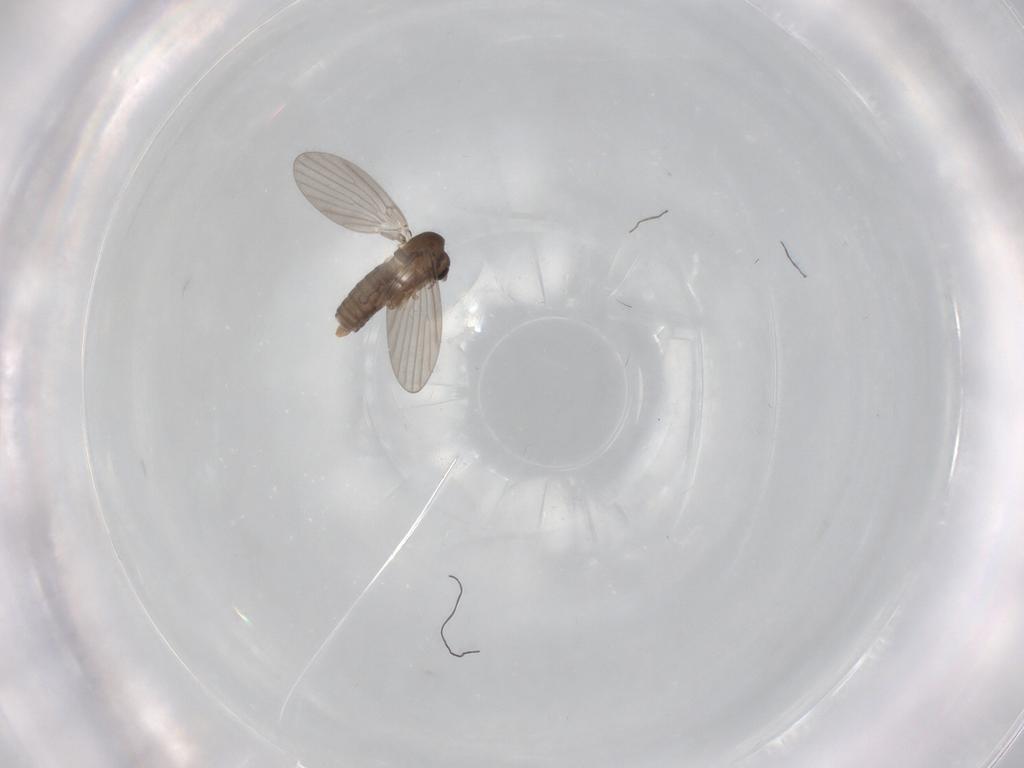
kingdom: Animalia
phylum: Arthropoda
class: Insecta
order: Diptera
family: Cecidomyiidae
